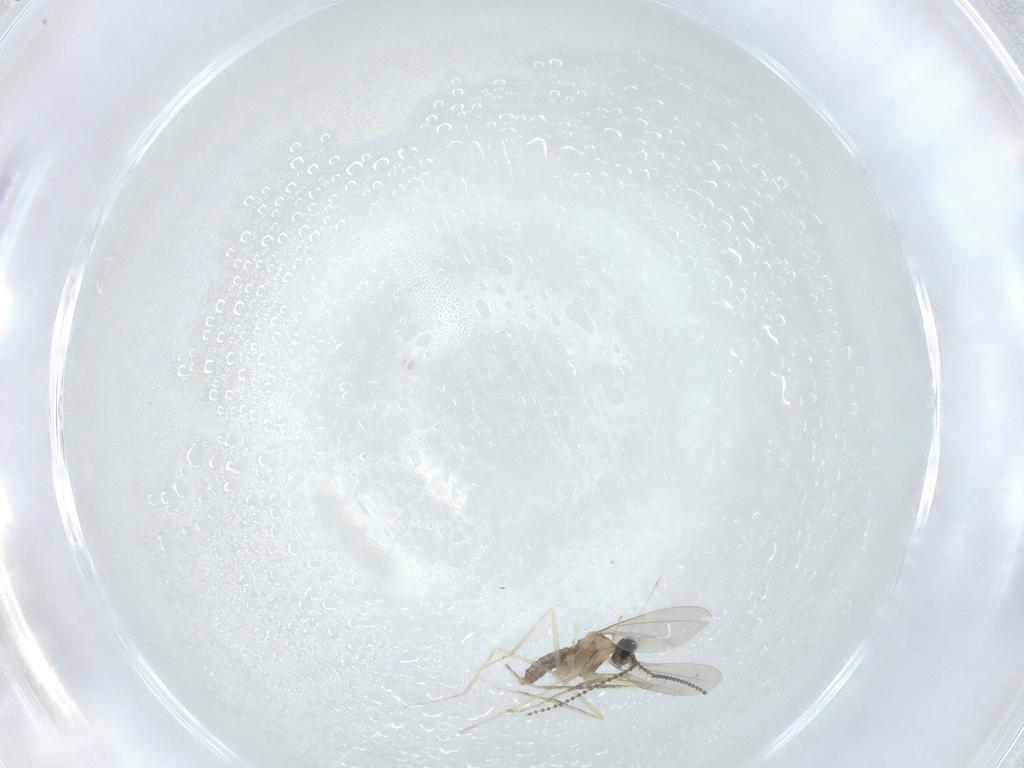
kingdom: Animalia
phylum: Arthropoda
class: Insecta
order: Diptera
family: Cecidomyiidae
